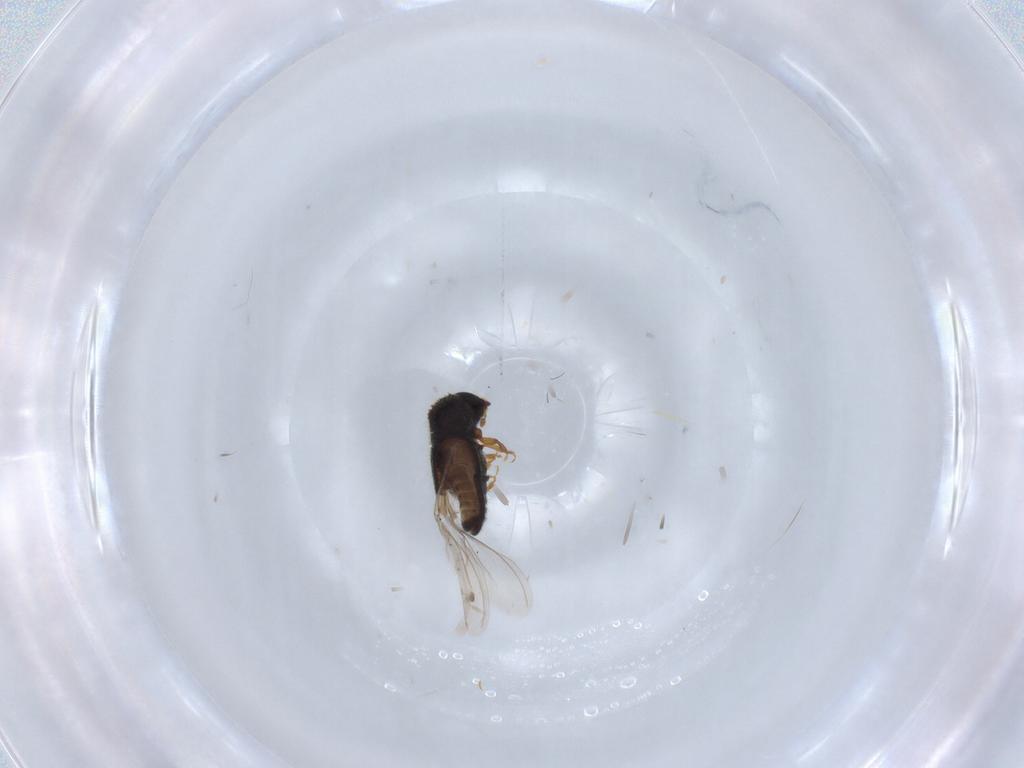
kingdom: Animalia
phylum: Arthropoda
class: Insecta
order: Coleoptera
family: Curculionidae
